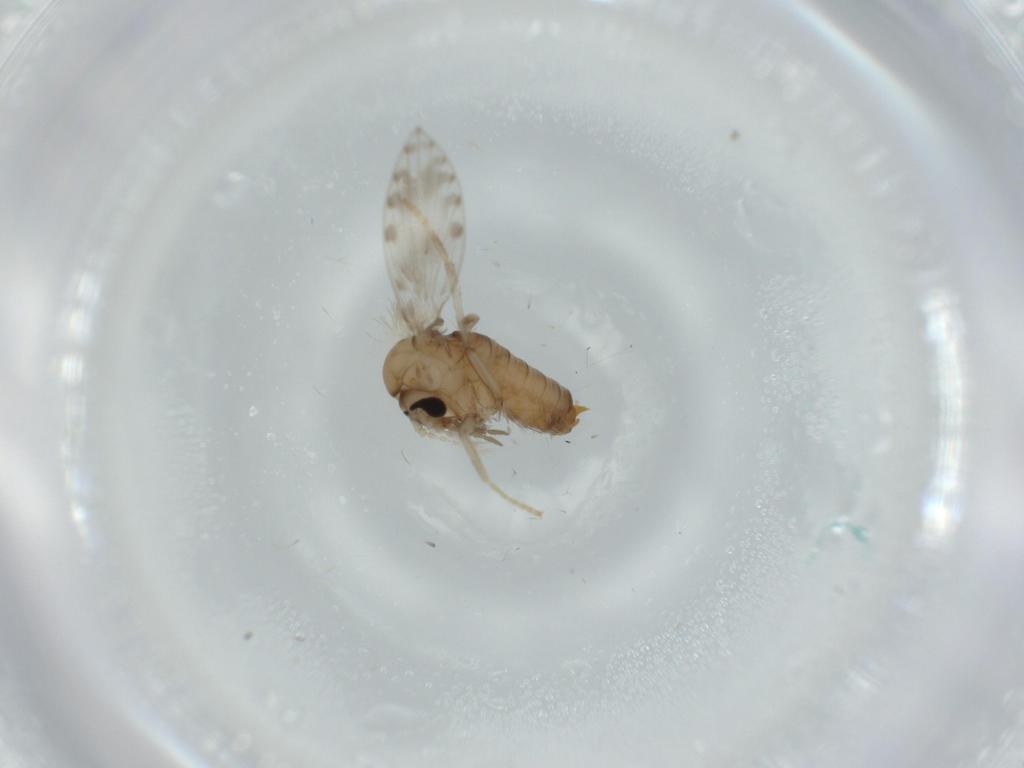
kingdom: Animalia
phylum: Arthropoda
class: Insecta
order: Diptera
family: Psychodidae
